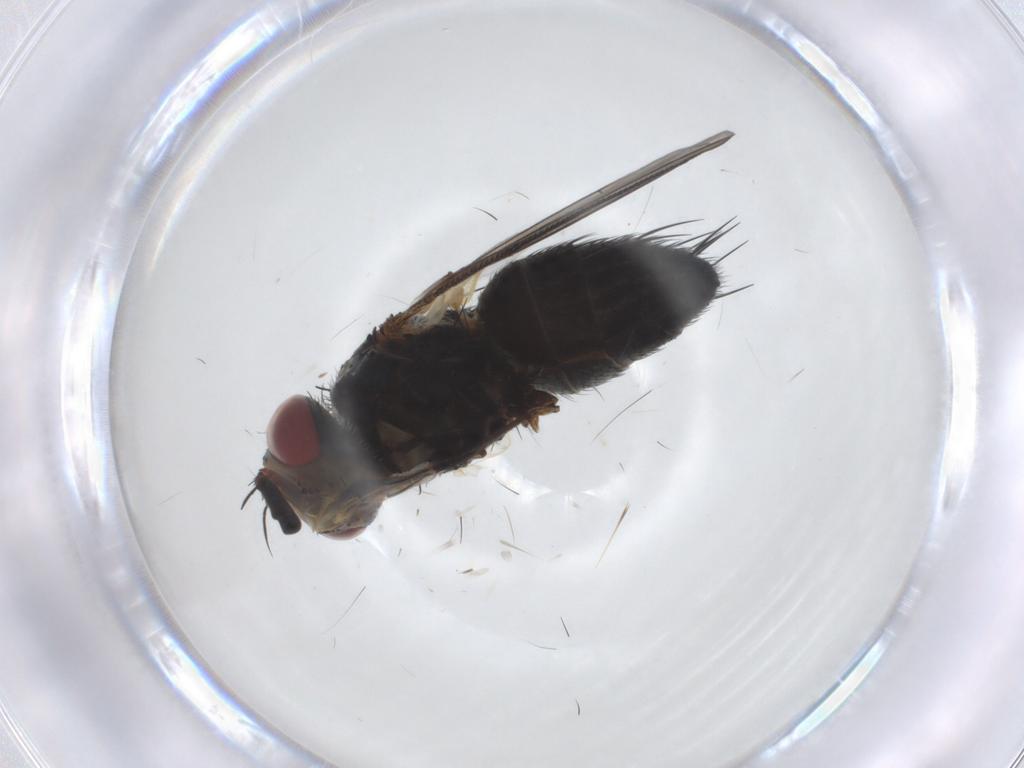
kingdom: Animalia
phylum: Arthropoda
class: Insecta
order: Diptera
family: Tachinidae
